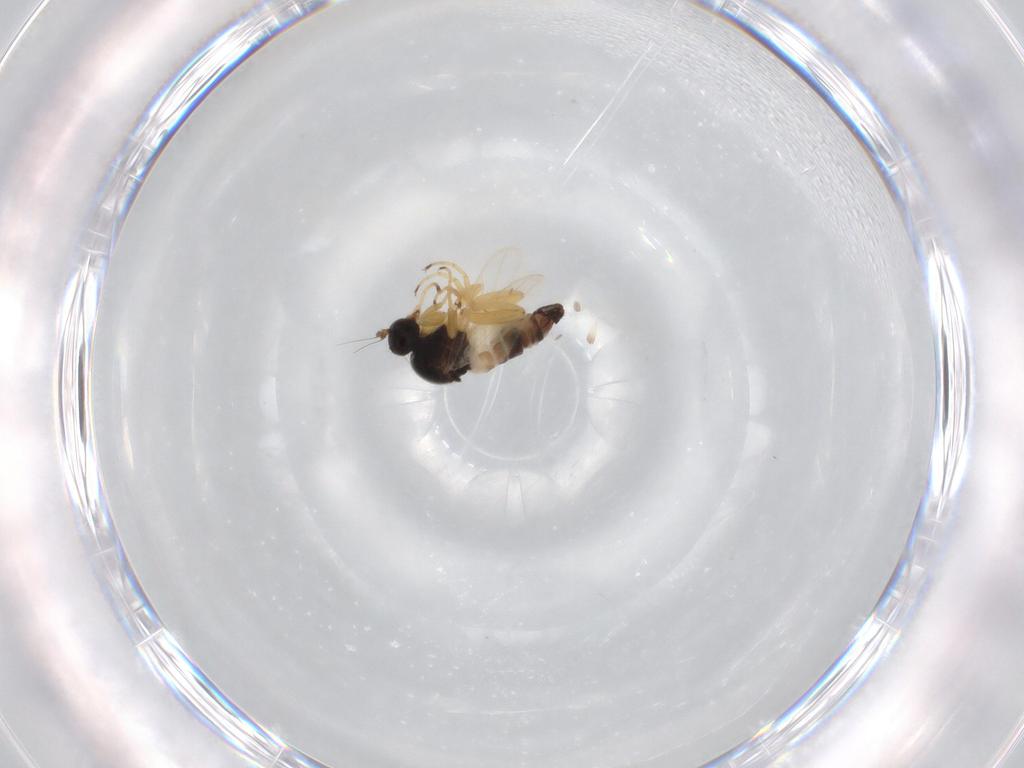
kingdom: Animalia
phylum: Arthropoda
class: Insecta
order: Diptera
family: Hybotidae
